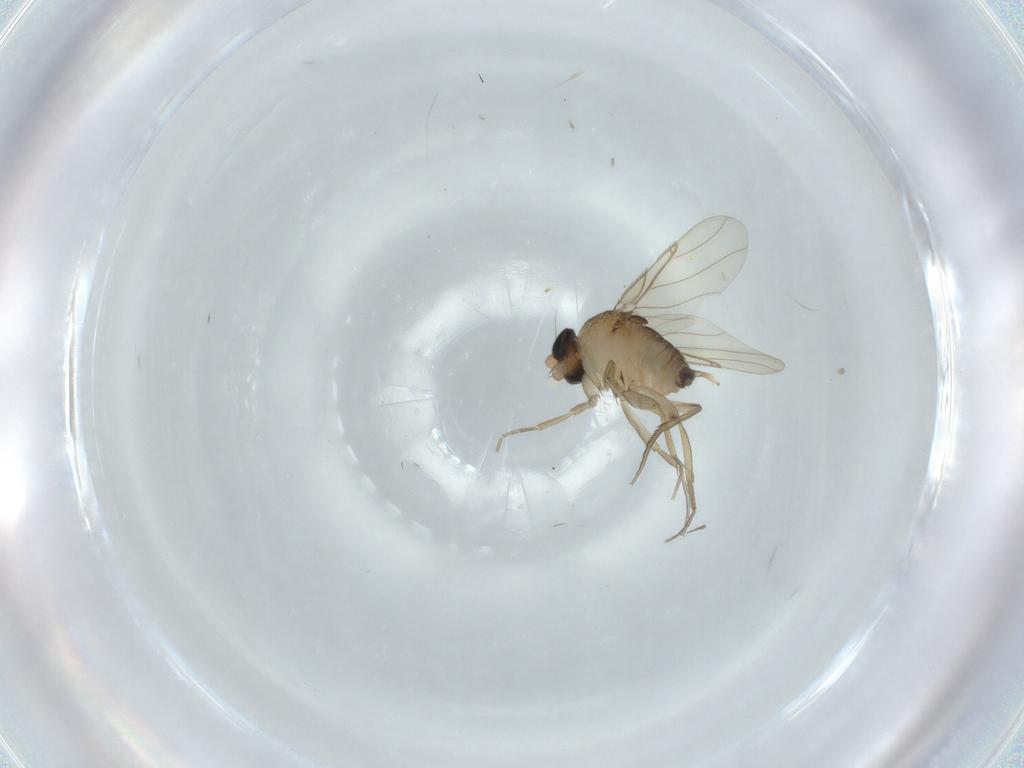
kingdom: Animalia
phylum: Arthropoda
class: Insecta
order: Diptera
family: Phoridae
